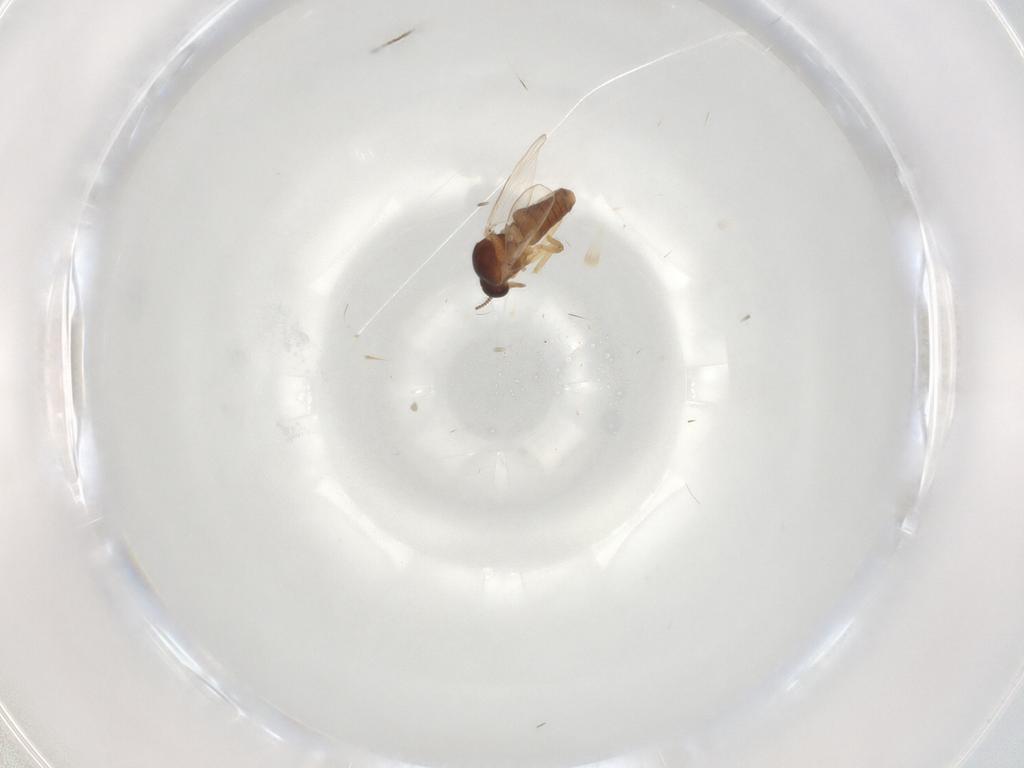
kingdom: Animalia
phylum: Arthropoda
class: Insecta
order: Diptera
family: Ceratopogonidae
